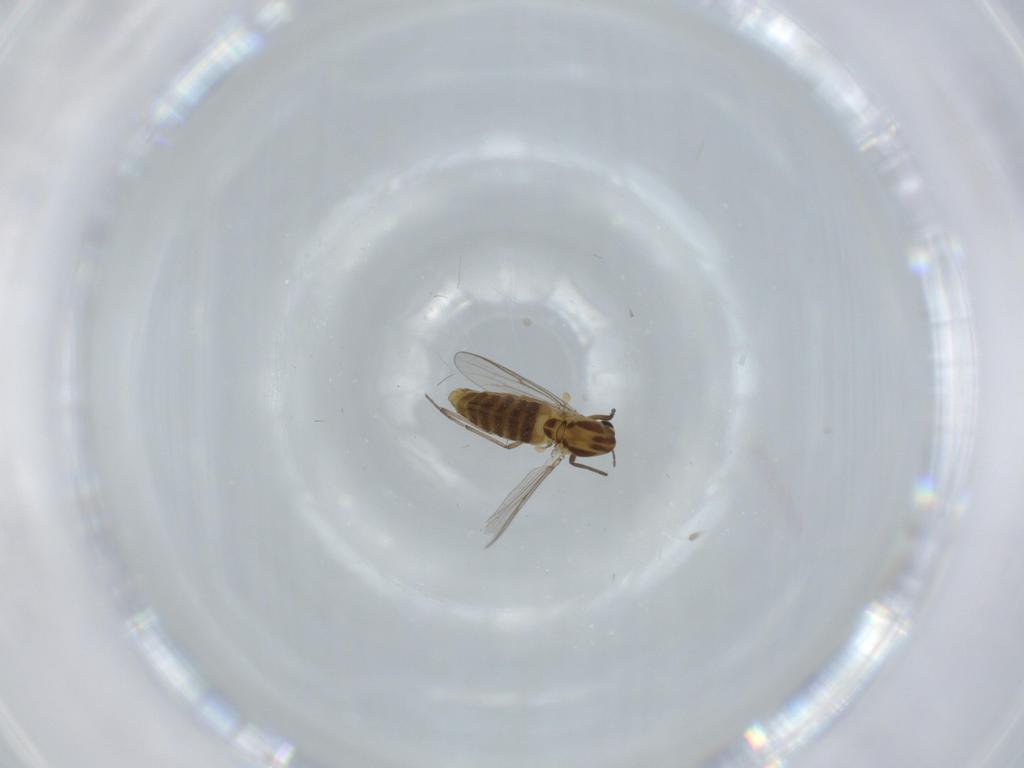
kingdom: Animalia
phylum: Arthropoda
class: Insecta
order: Diptera
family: Chironomidae
